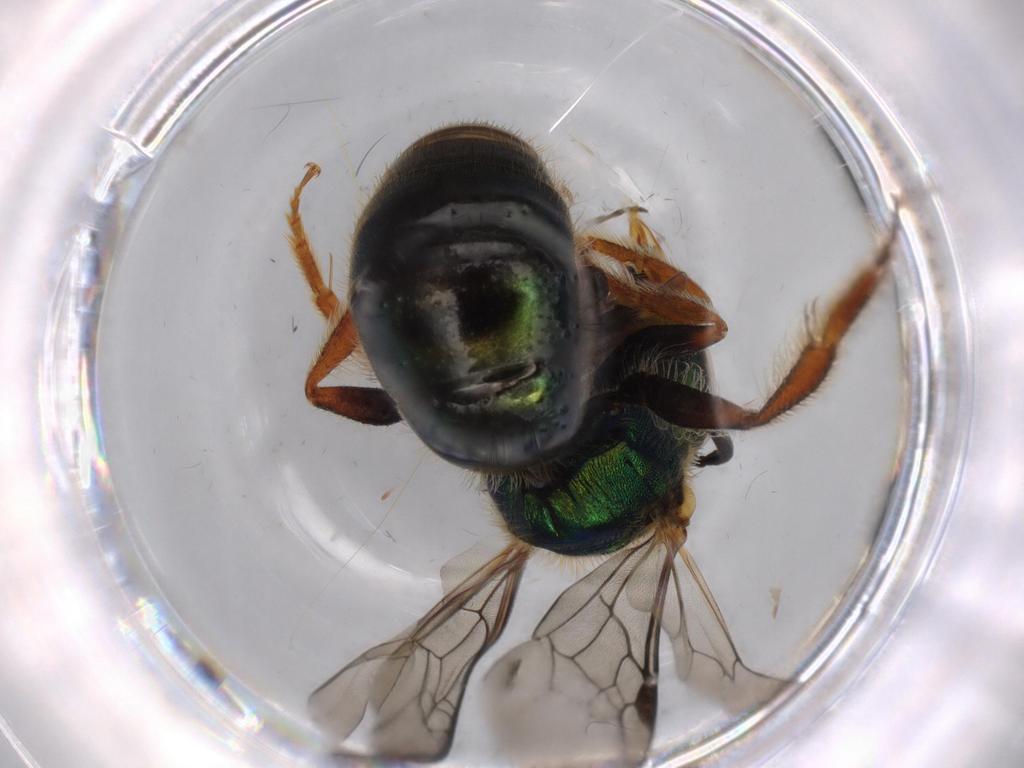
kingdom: Animalia
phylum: Arthropoda
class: Insecta
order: Hymenoptera
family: Halictidae
